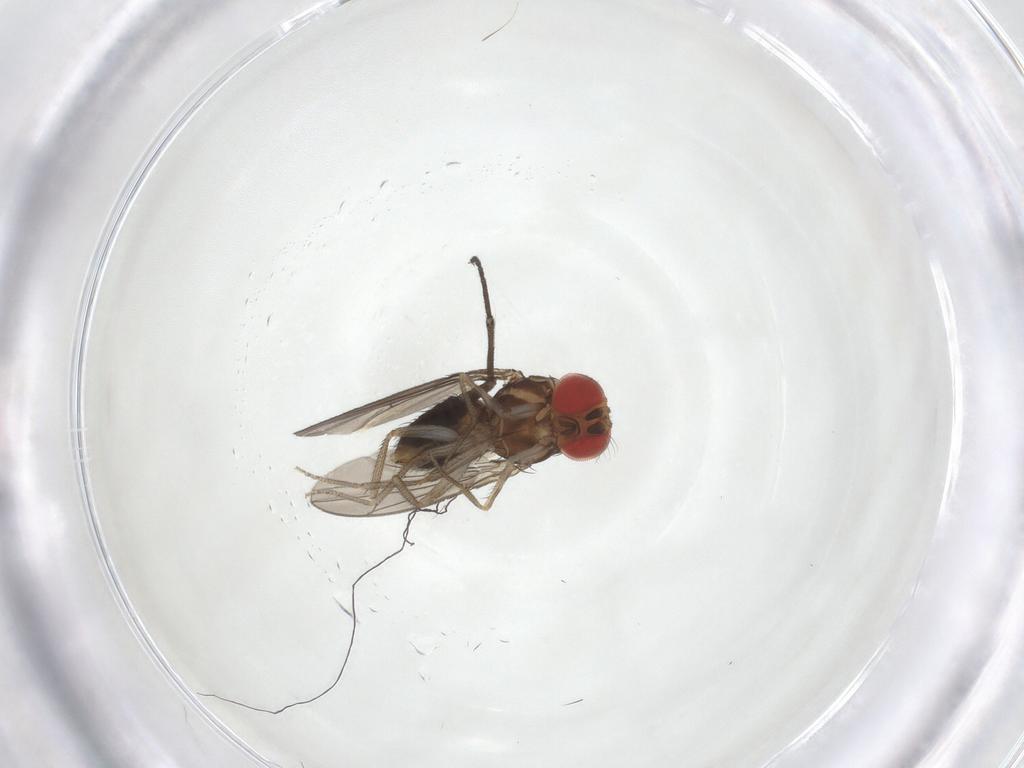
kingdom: Animalia
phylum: Arthropoda
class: Insecta
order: Diptera
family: Drosophilidae
